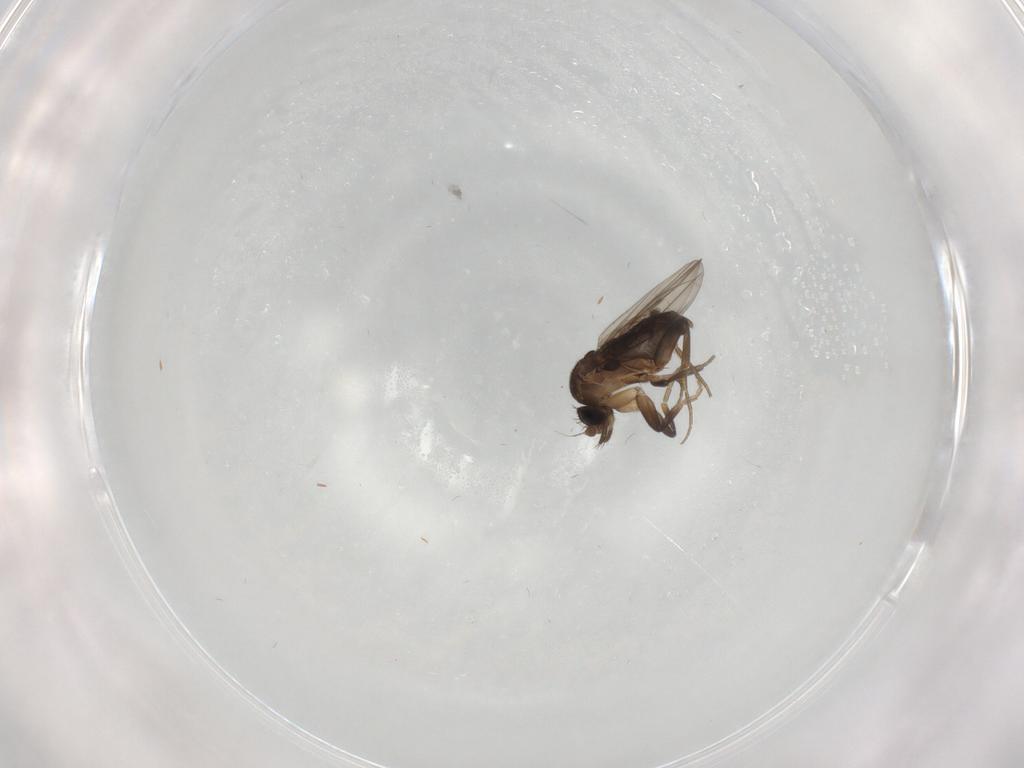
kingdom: Animalia
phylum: Arthropoda
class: Insecta
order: Diptera
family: Phoridae
